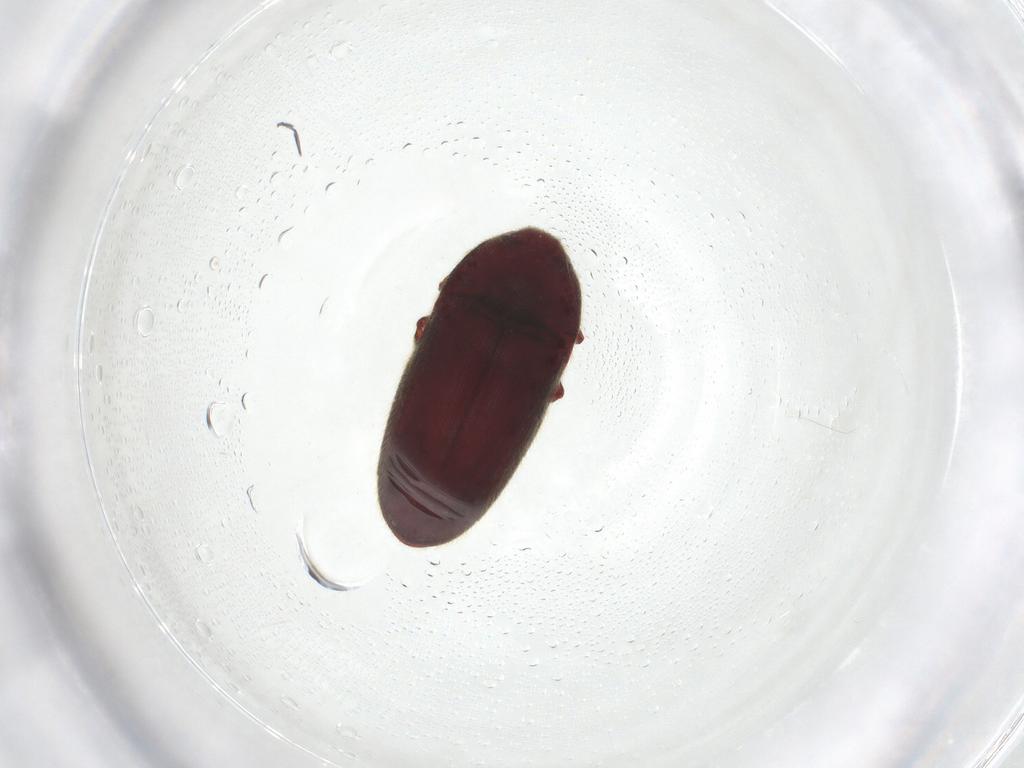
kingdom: Animalia
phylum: Arthropoda
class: Insecta
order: Coleoptera
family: Throscidae
